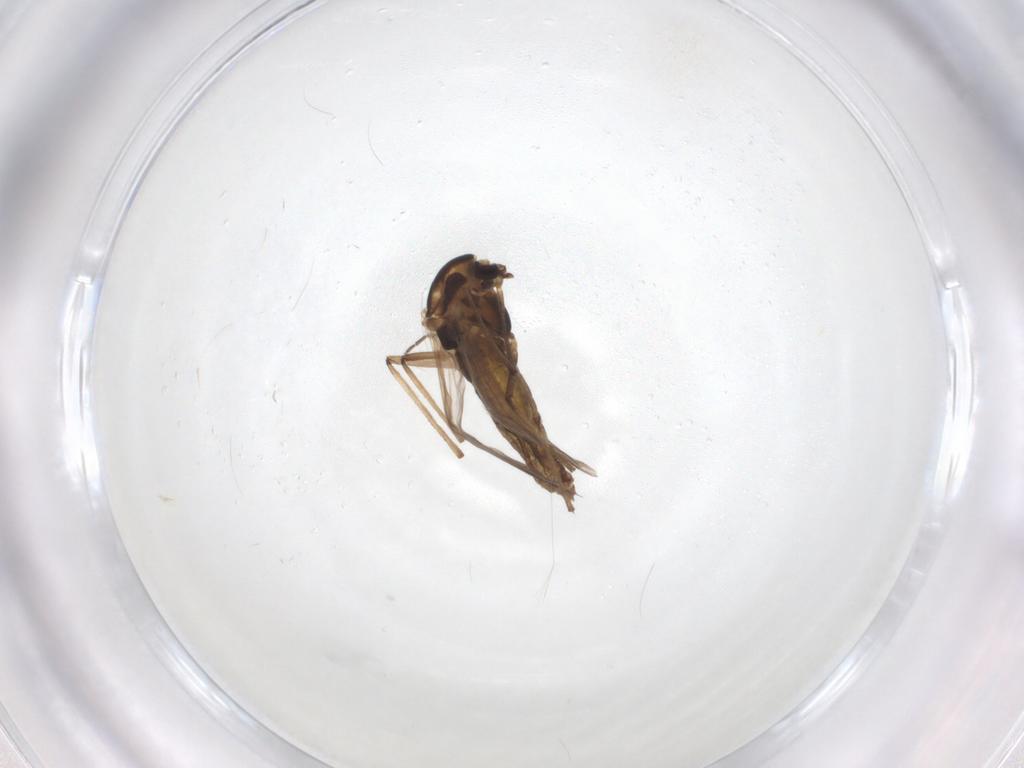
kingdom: Animalia
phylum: Arthropoda
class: Insecta
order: Diptera
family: Chironomidae
